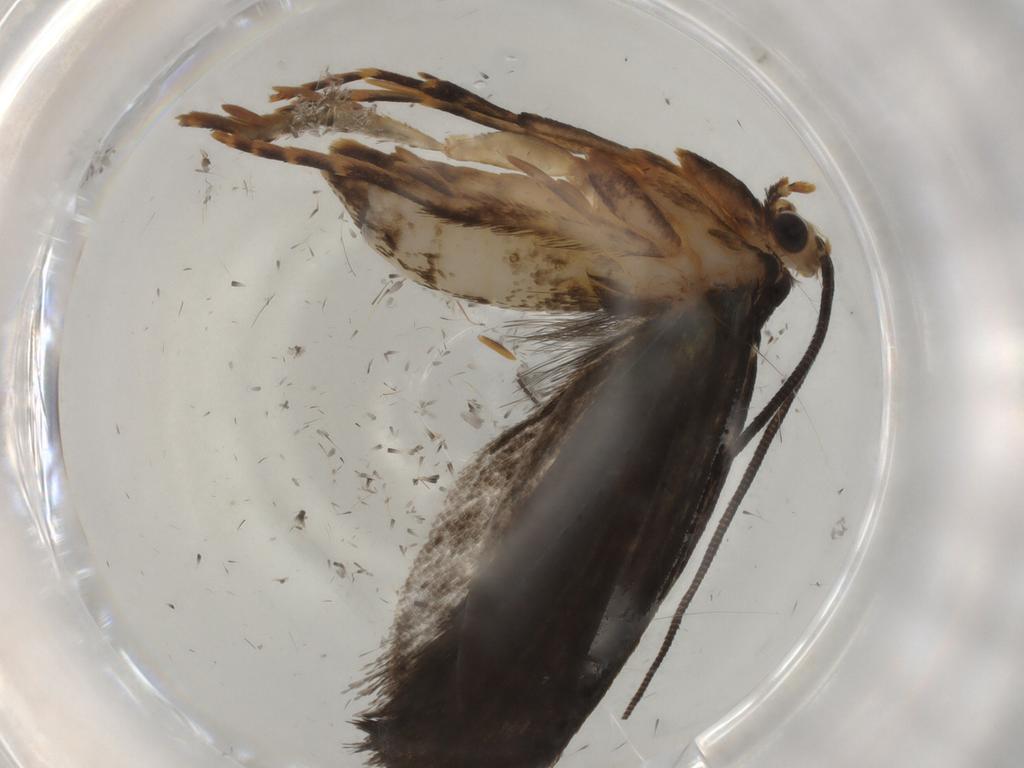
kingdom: Animalia
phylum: Arthropoda
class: Insecta
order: Lepidoptera
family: Tineidae
